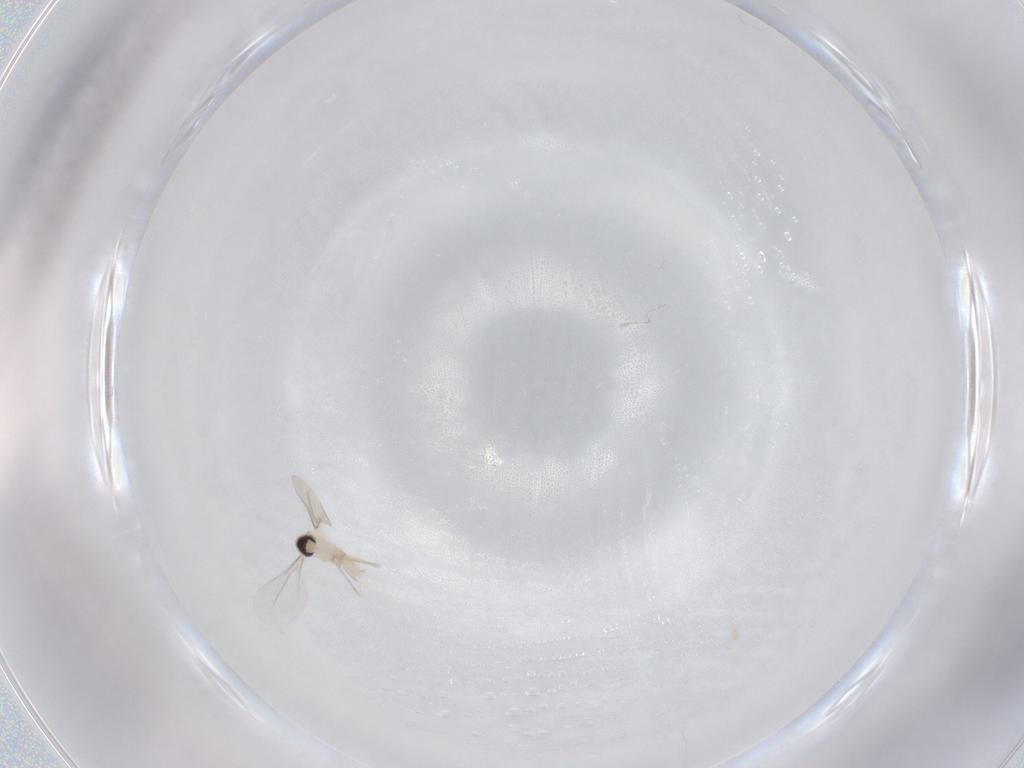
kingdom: Animalia
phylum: Arthropoda
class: Insecta
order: Diptera
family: Cecidomyiidae
